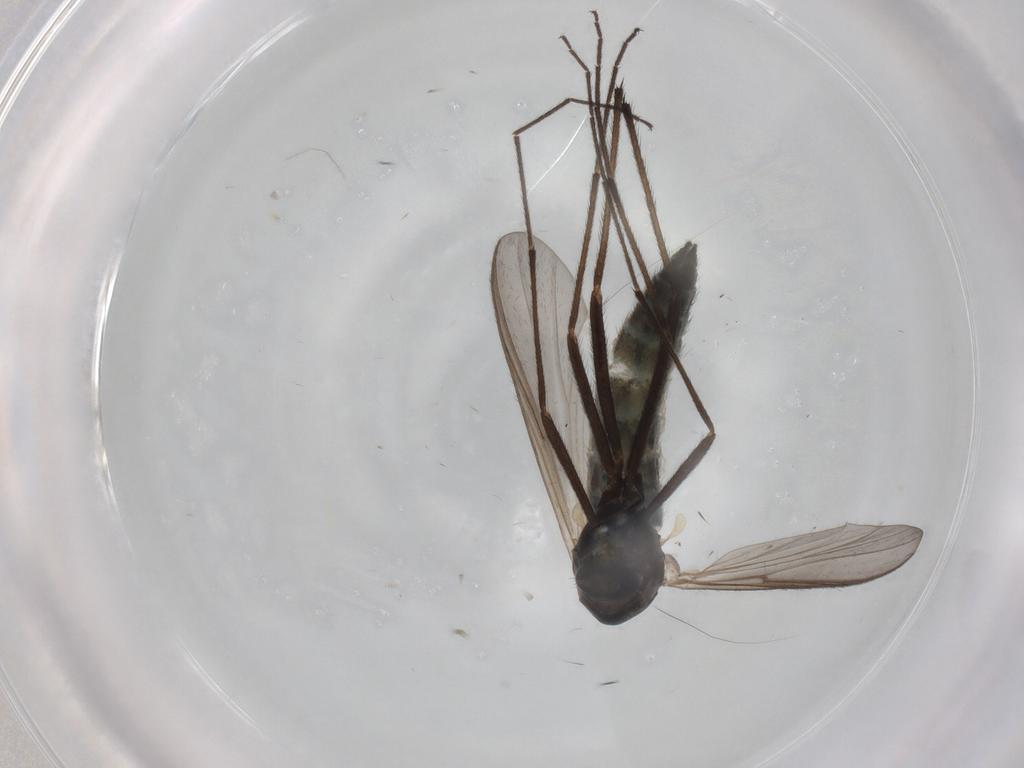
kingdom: Animalia
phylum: Arthropoda
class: Insecta
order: Diptera
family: Chironomidae
